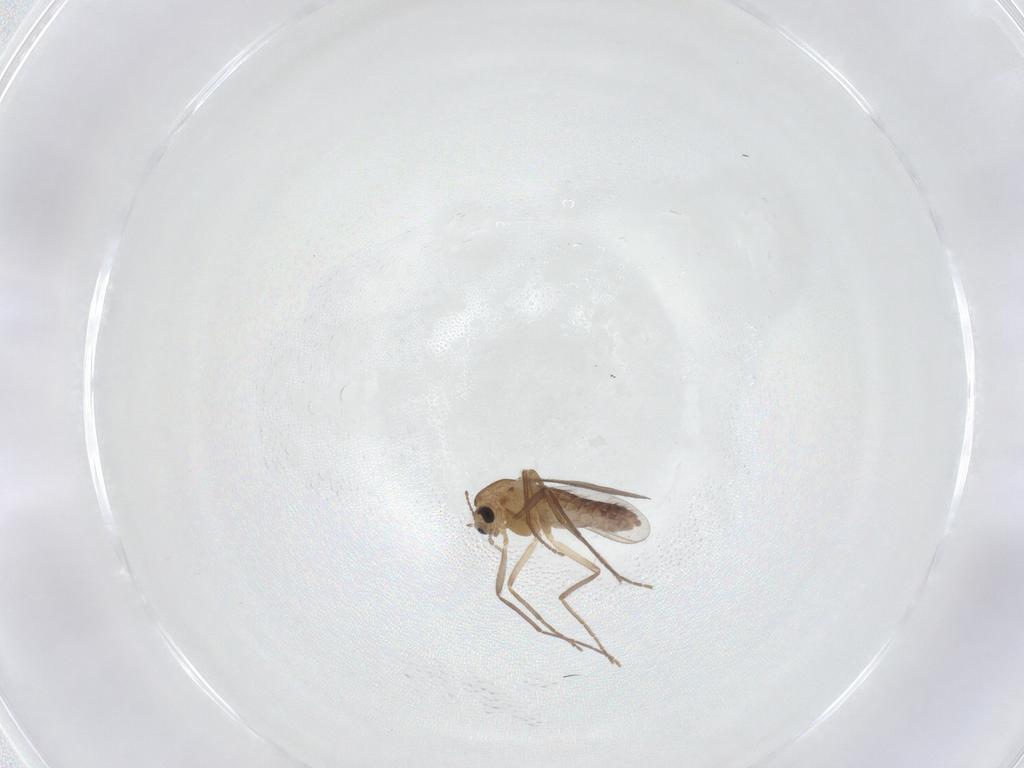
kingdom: Animalia
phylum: Arthropoda
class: Insecta
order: Diptera
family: Chironomidae
